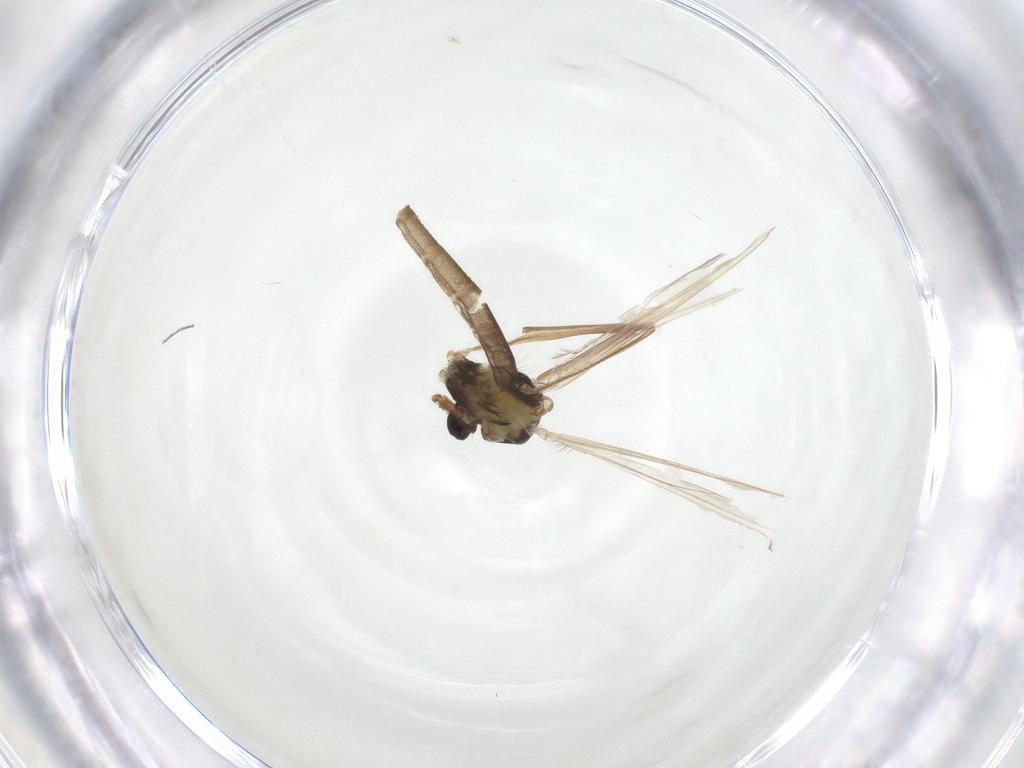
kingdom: Animalia
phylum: Arthropoda
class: Insecta
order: Diptera
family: Chironomidae
